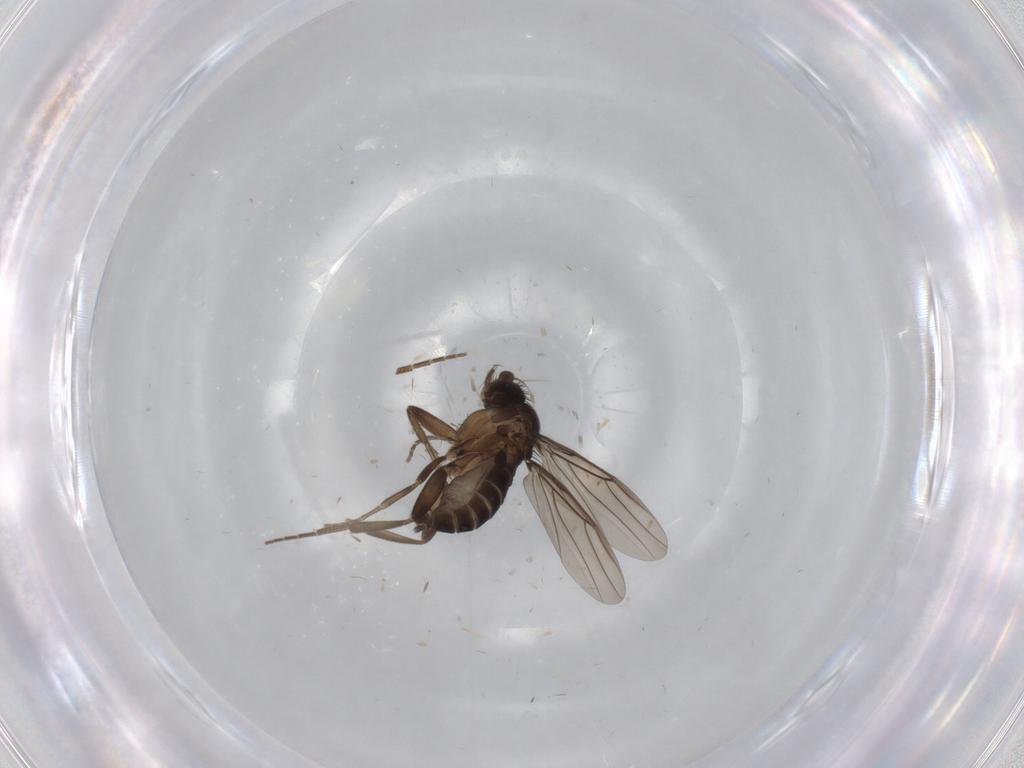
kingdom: Animalia
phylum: Arthropoda
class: Insecta
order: Diptera
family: Phoridae
